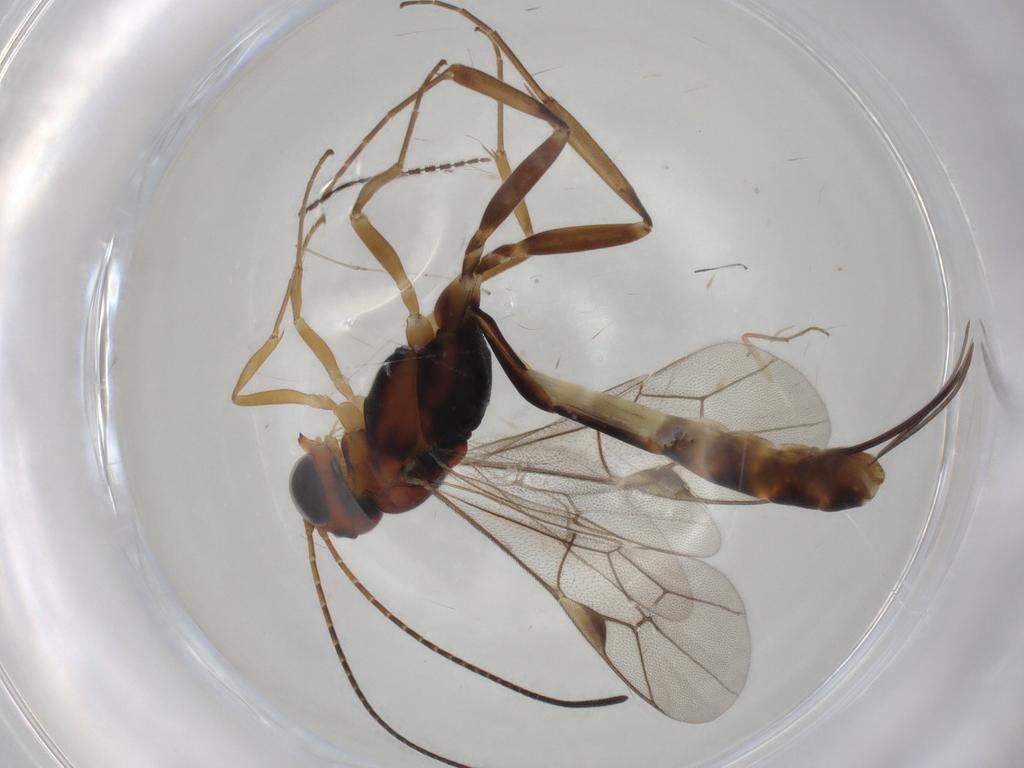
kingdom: Animalia
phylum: Arthropoda
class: Insecta
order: Hymenoptera
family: Ichneumonidae
